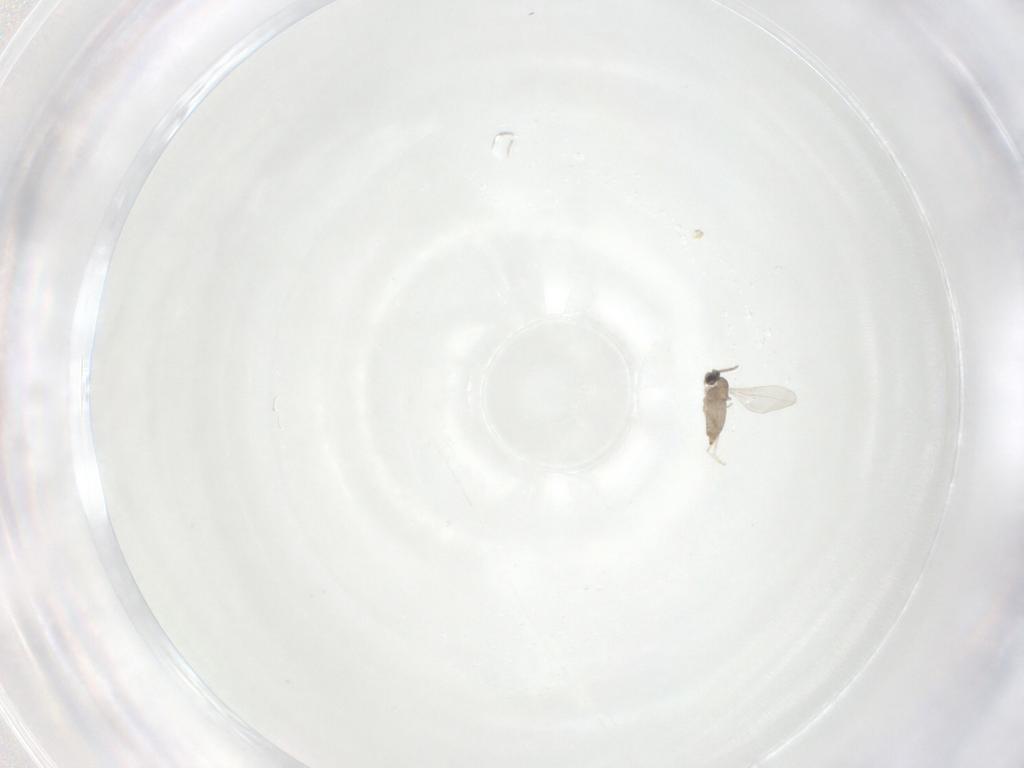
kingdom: Animalia
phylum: Arthropoda
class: Insecta
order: Diptera
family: Cecidomyiidae
